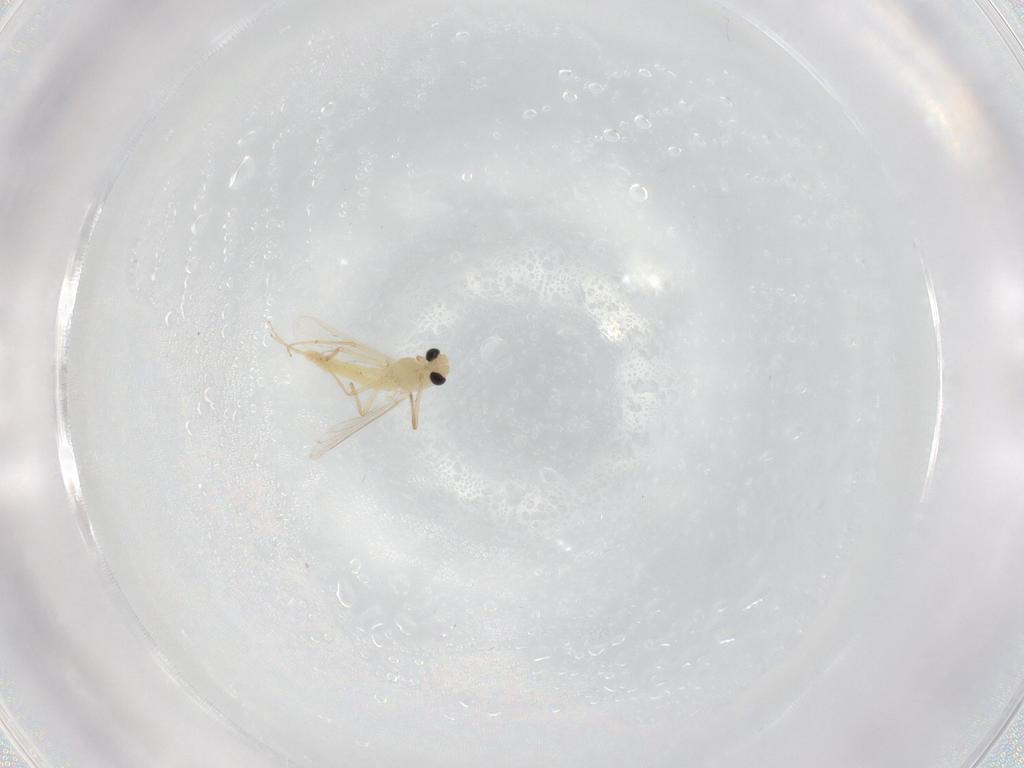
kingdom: Animalia
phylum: Arthropoda
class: Insecta
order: Diptera
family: Chironomidae
